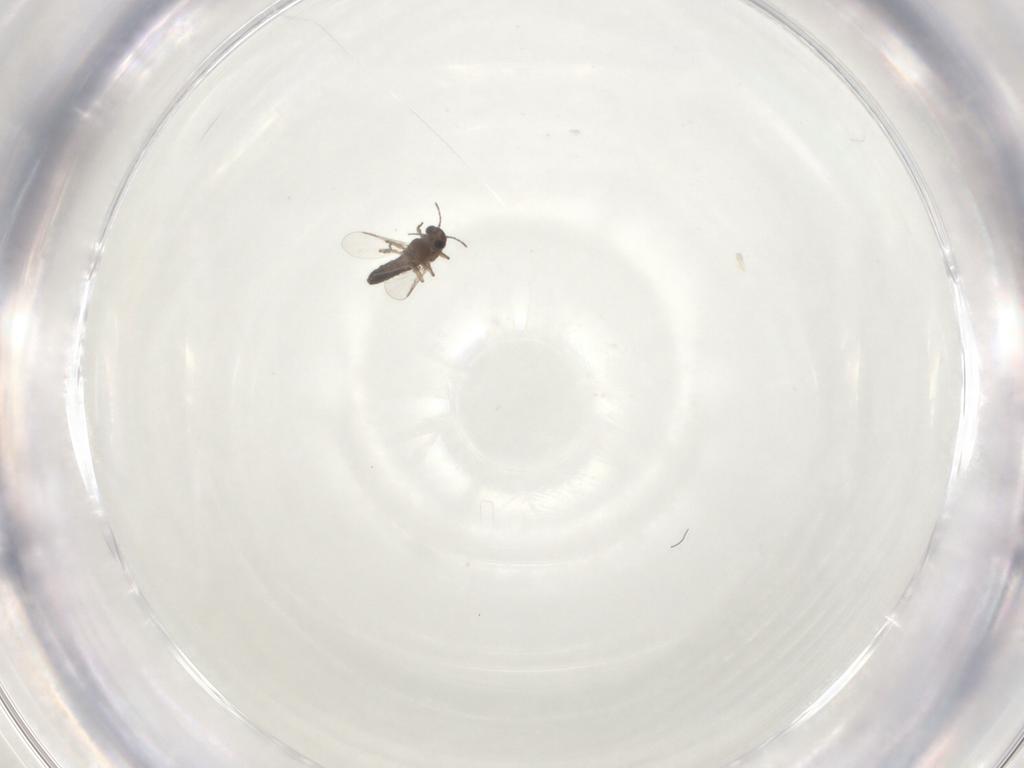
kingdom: Animalia
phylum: Arthropoda
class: Insecta
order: Diptera
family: Chironomidae
